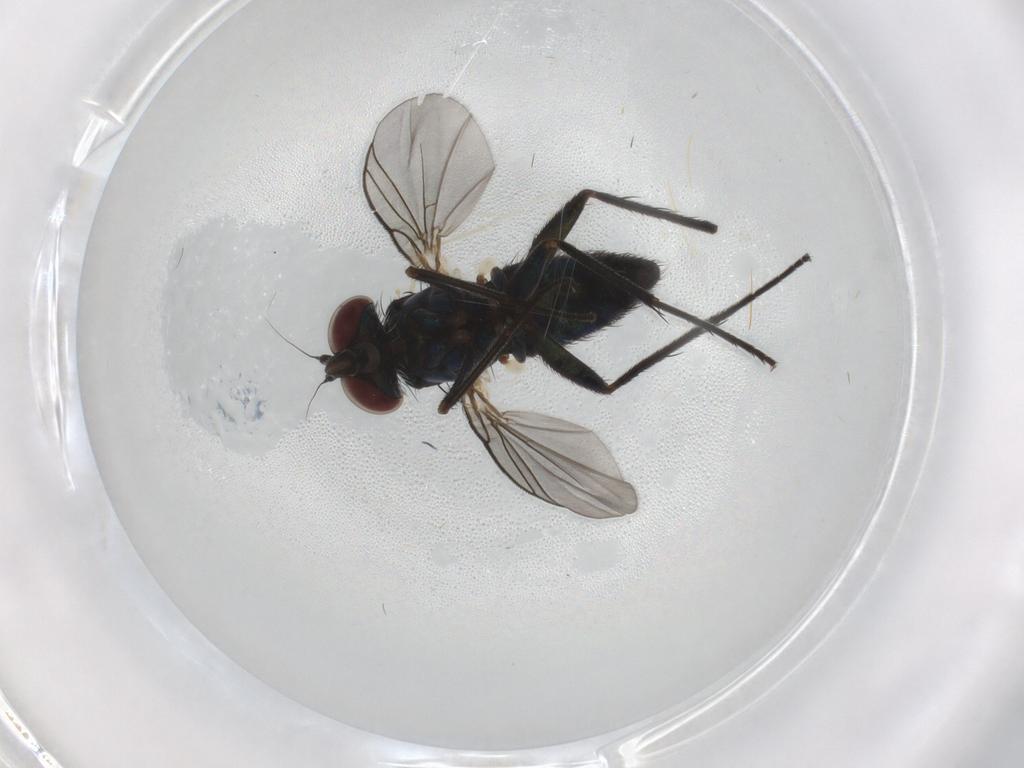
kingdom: Animalia
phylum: Arthropoda
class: Insecta
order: Diptera
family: Dolichopodidae
